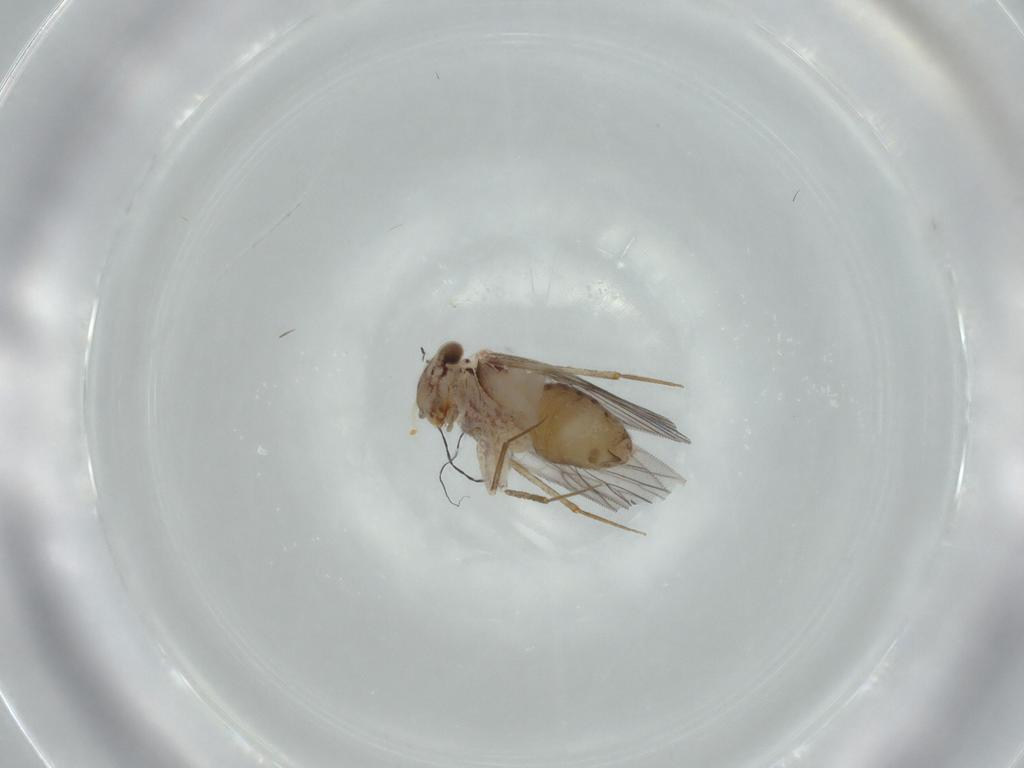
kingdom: Animalia
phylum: Arthropoda
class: Insecta
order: Psocodea
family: Lepidopsocidae
